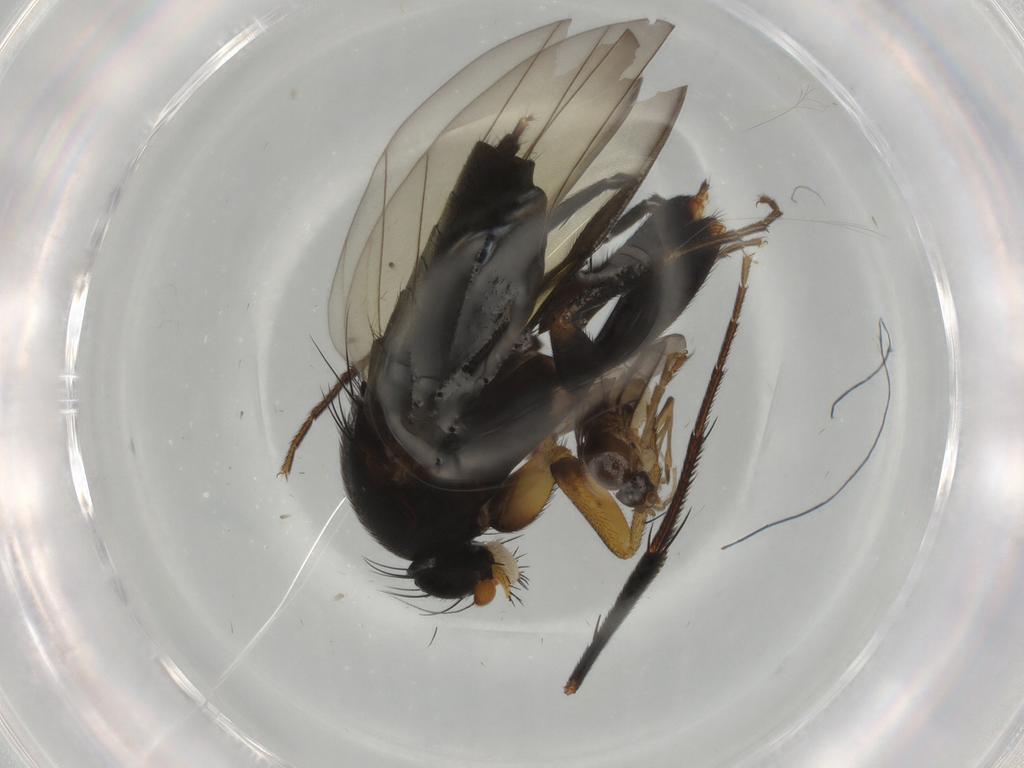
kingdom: Animalia
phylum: Arthropoda
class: Insecta
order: Diptera
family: Phoridae
